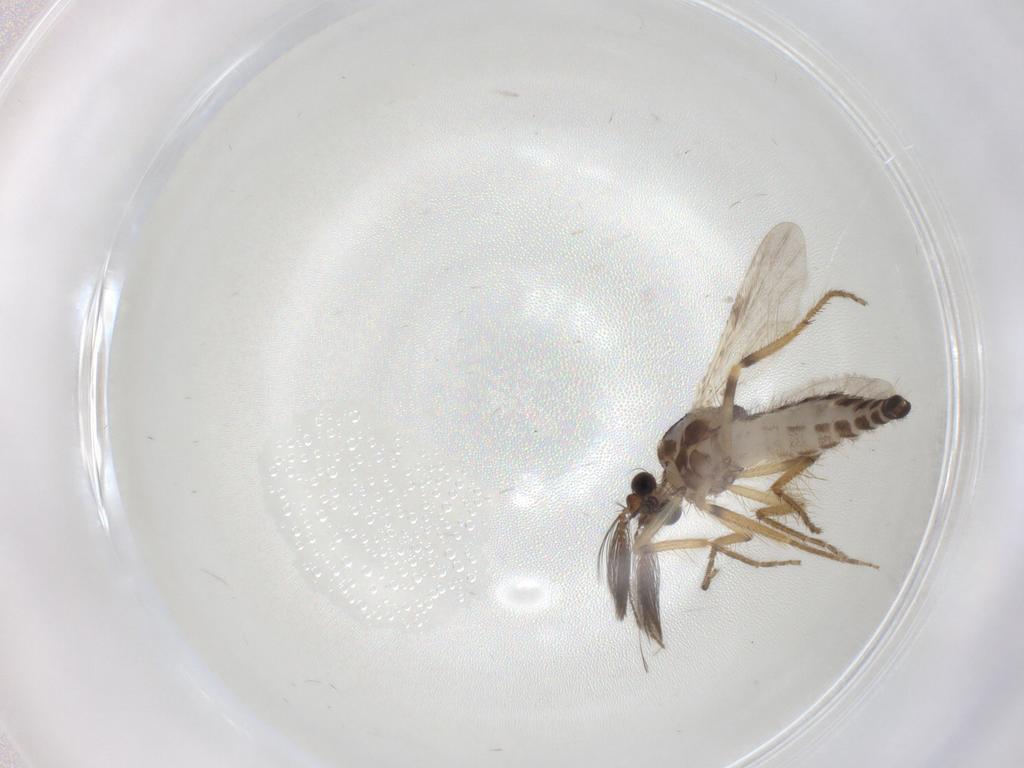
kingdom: Animalia
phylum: Arthropoda
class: Insecta
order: Diptera
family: Ceratopogonidae
